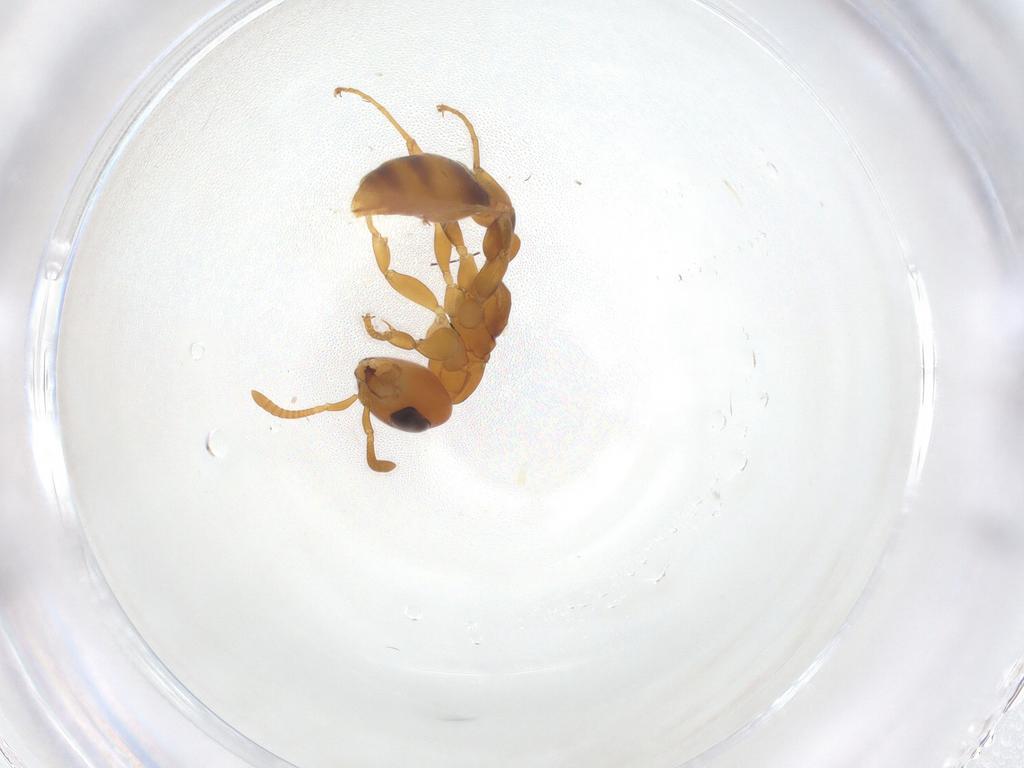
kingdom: Animalia
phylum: Arthropoda
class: Insecta
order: Hymenoptera
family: Formicidae
